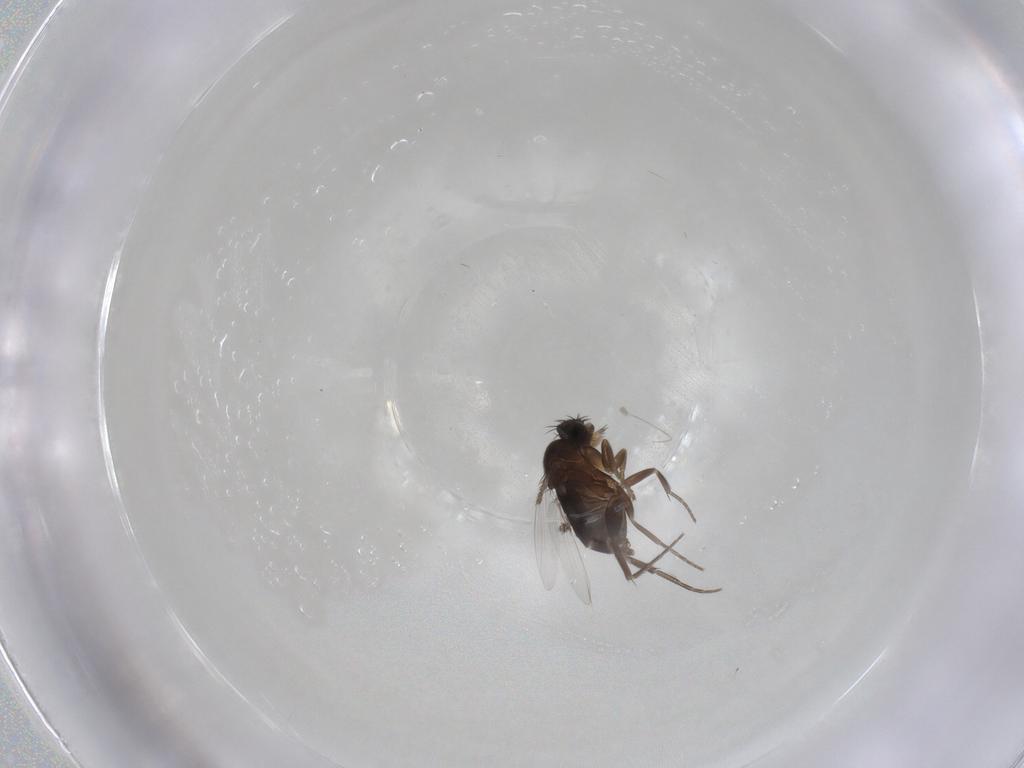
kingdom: Animalia
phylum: Arthropoda
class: Insecta
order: Diptera
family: Phoridae
